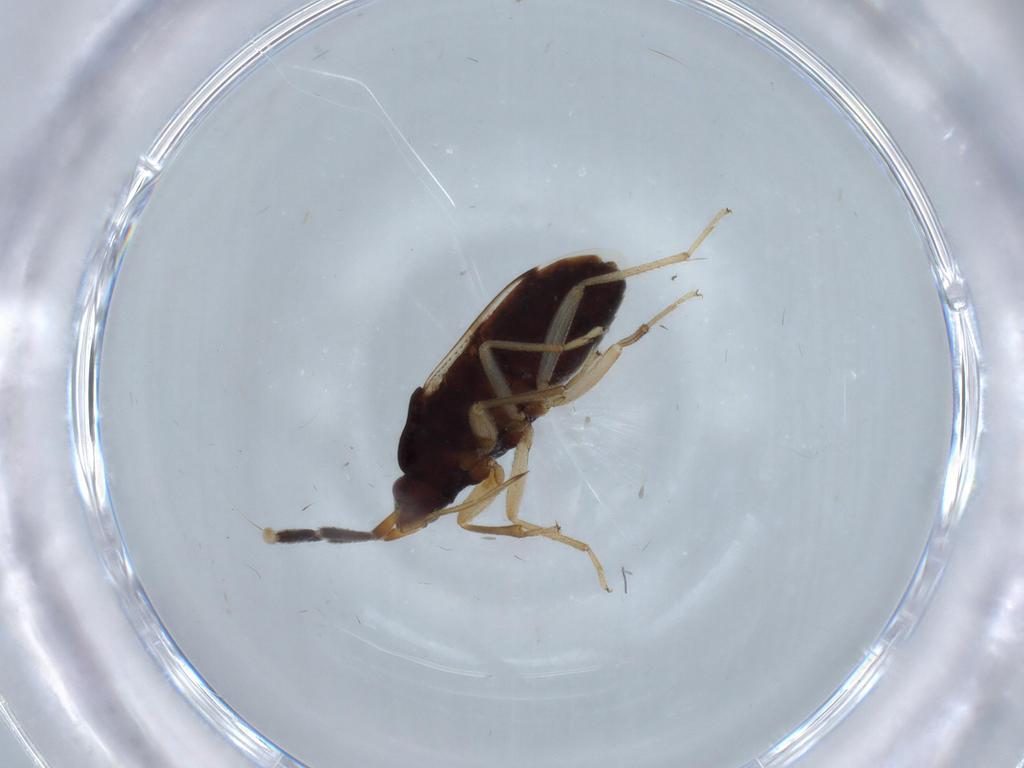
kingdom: Animalia
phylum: Arthropoda
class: Insecta
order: Hemiptera
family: Rhyparochromidae
